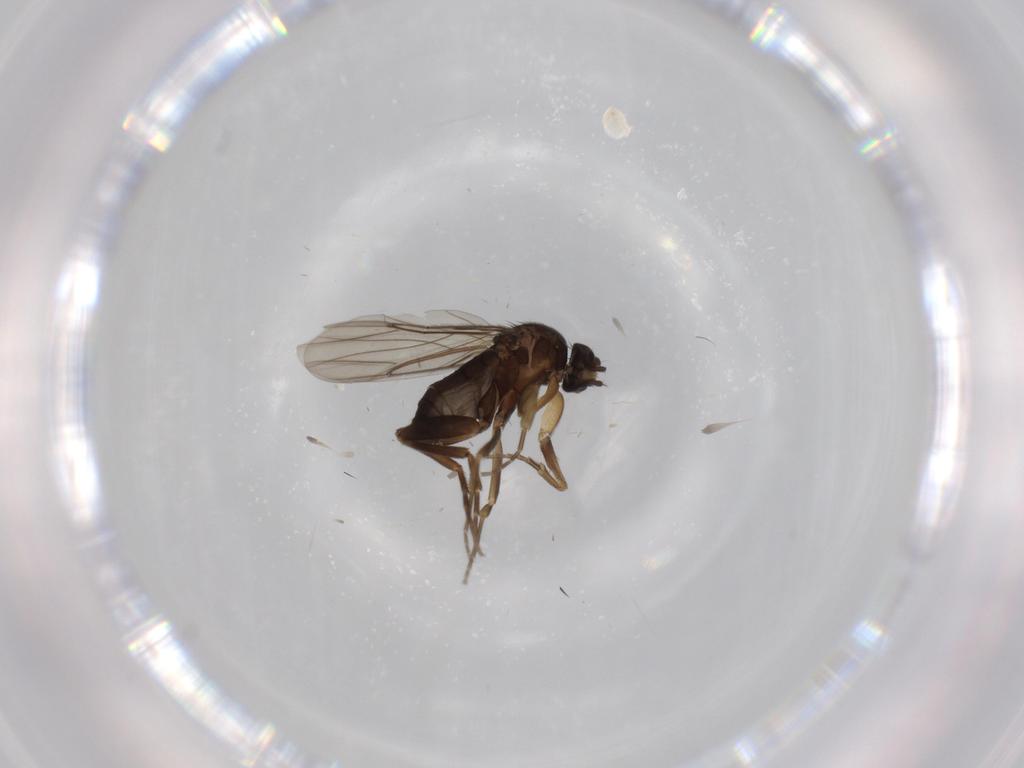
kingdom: Animalia
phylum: Arthropoda
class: Insecta
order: Diptera
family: Phoridae
